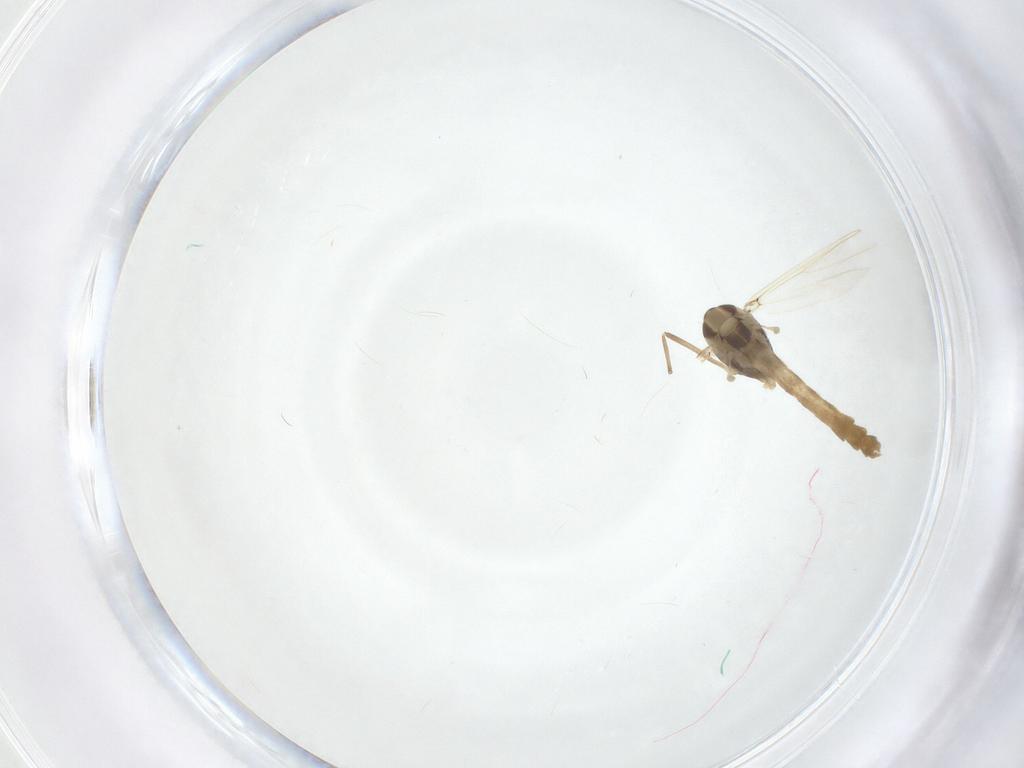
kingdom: Animalia
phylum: Arthropoda
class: Insecta
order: Diptera
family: Chironomidae
